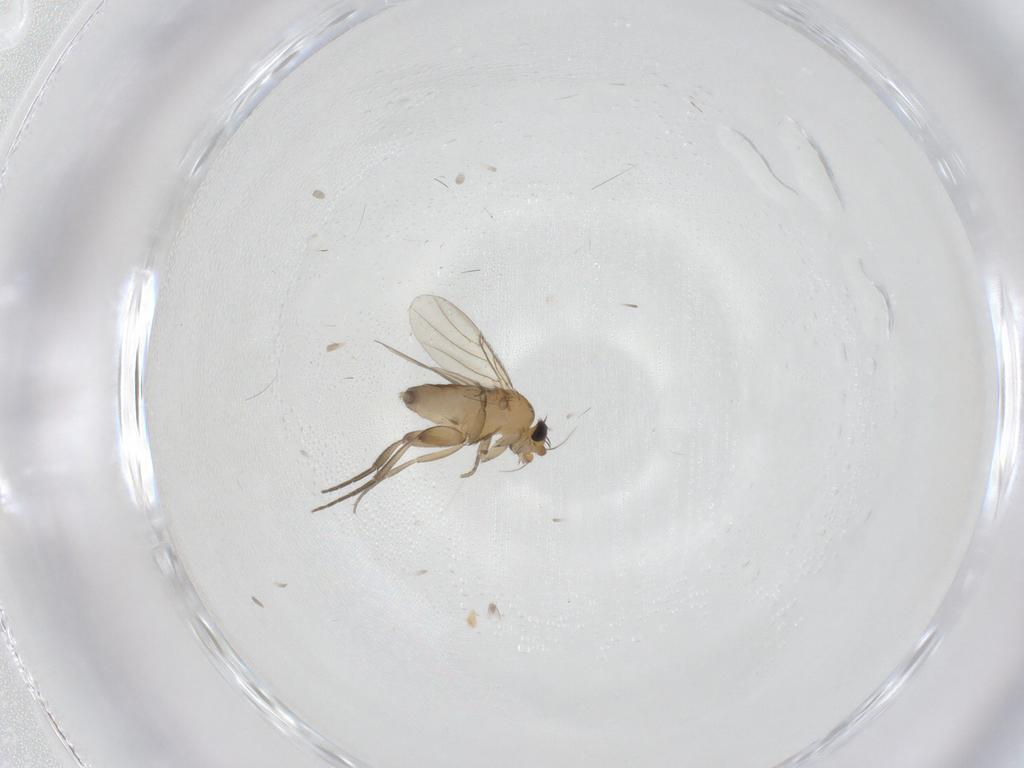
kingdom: Animalia
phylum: Arthropoda
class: Insecta
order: Diptera
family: Phoridae
